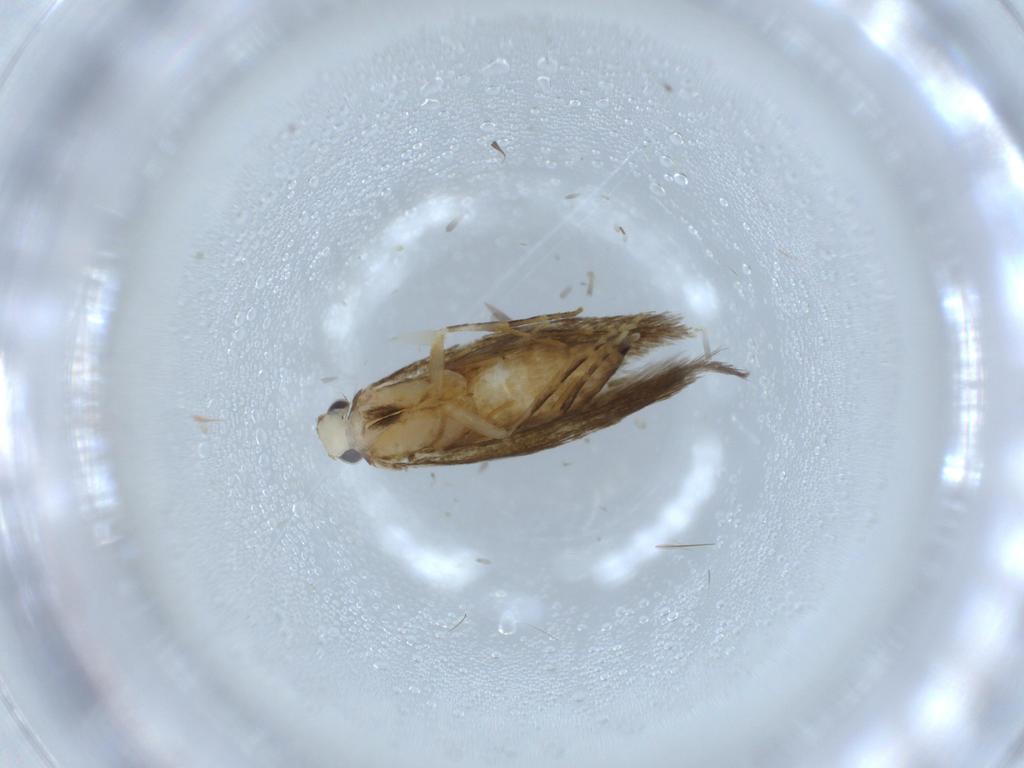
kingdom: Animalia
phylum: Arthropoda
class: Insecta
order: Lepidoptera
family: Tineidae
